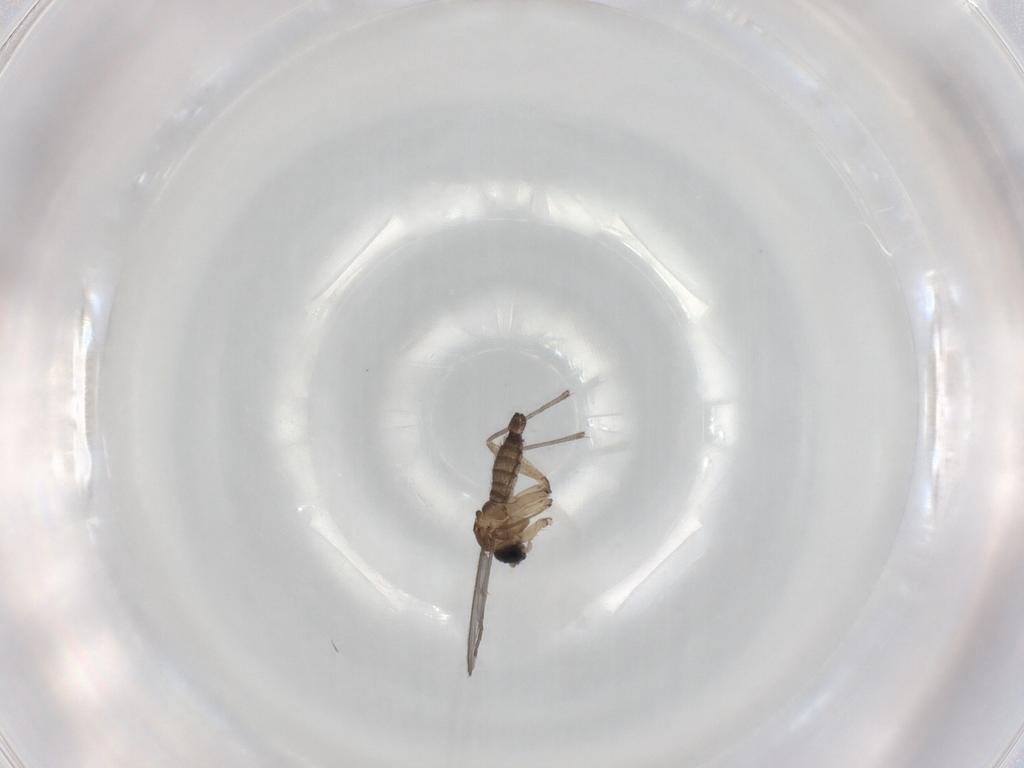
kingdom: Animalia
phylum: Arthropoda
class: Insecta
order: Diptera
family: Sciaridae
